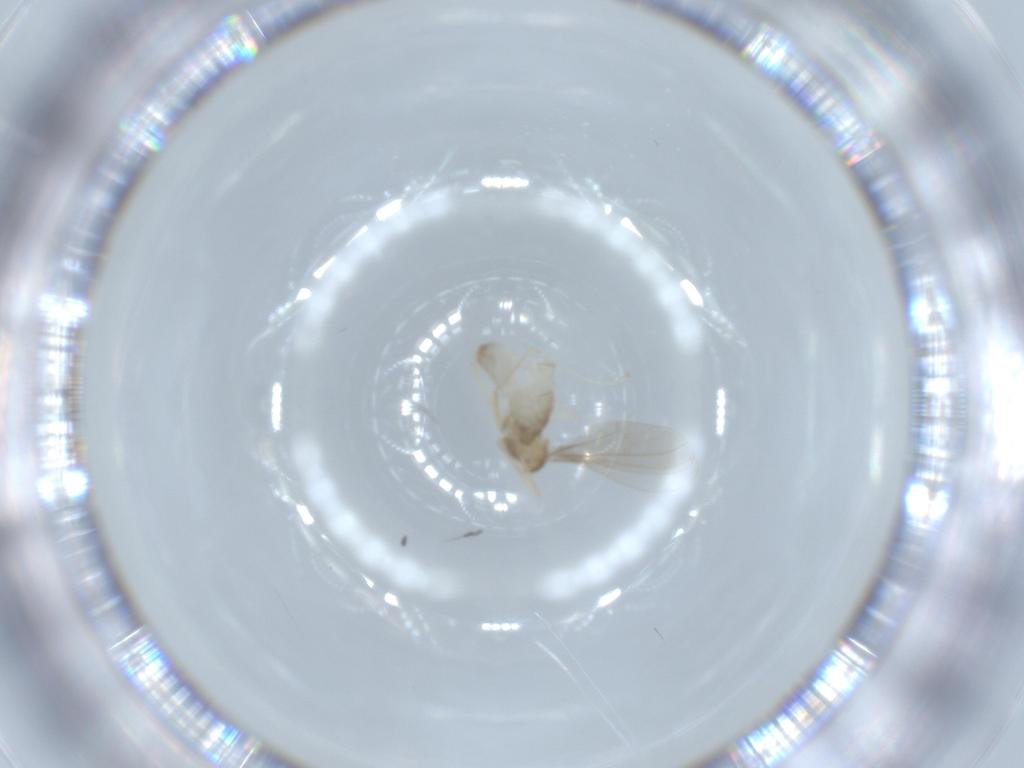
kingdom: Animalia
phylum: Arthropoda
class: Insecta
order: Diptera
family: Cecidomyiidae
